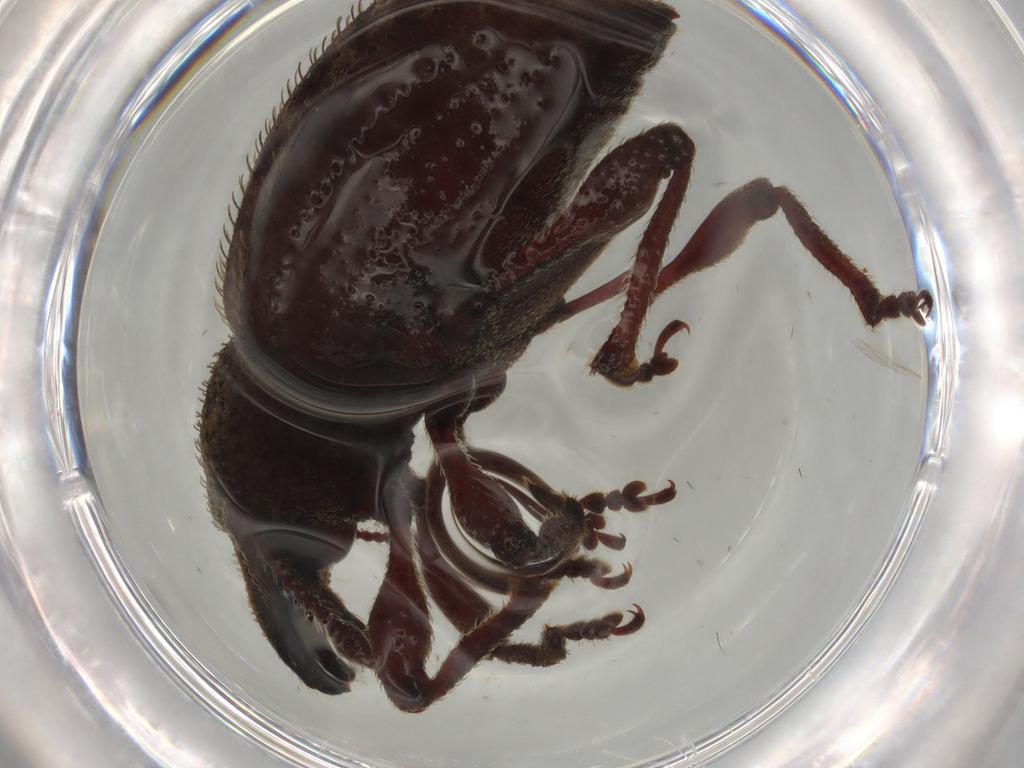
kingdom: Animalia
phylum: Arthropoda
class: Insecta
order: Coleoptera
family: Curculionidae
